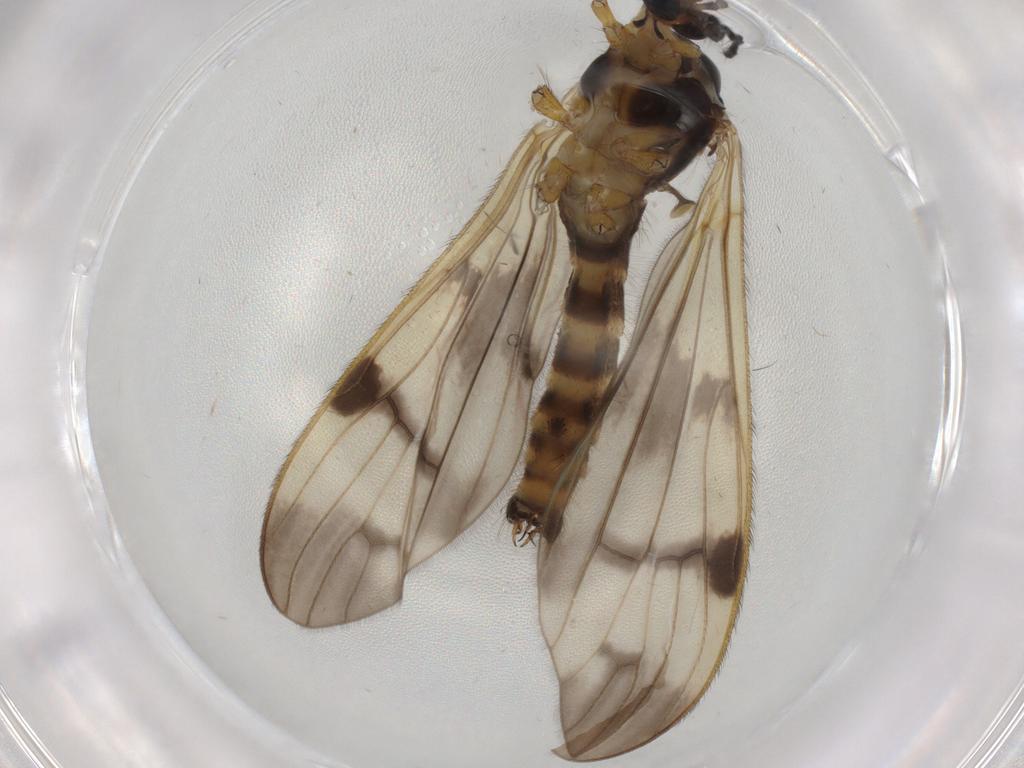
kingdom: Animalia
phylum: Arthropoda
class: Insecta
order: Diptera
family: Limoniidae
